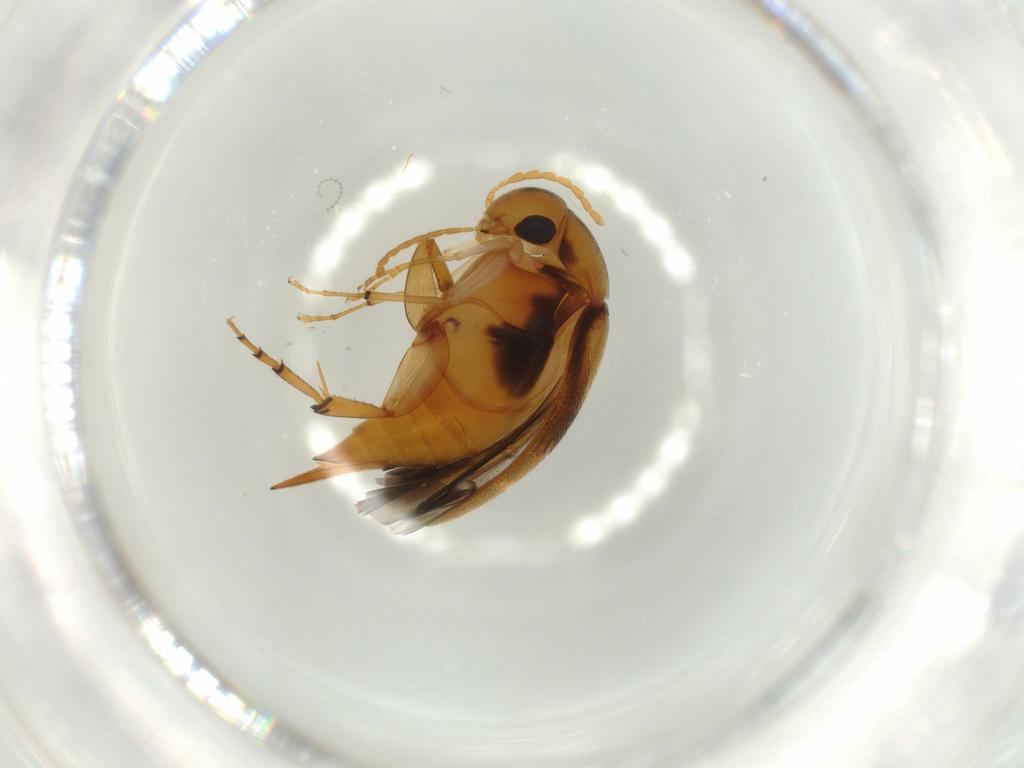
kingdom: Animalia
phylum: Arthropoda
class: Insecta
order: Coleoptera
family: Mordellidae
